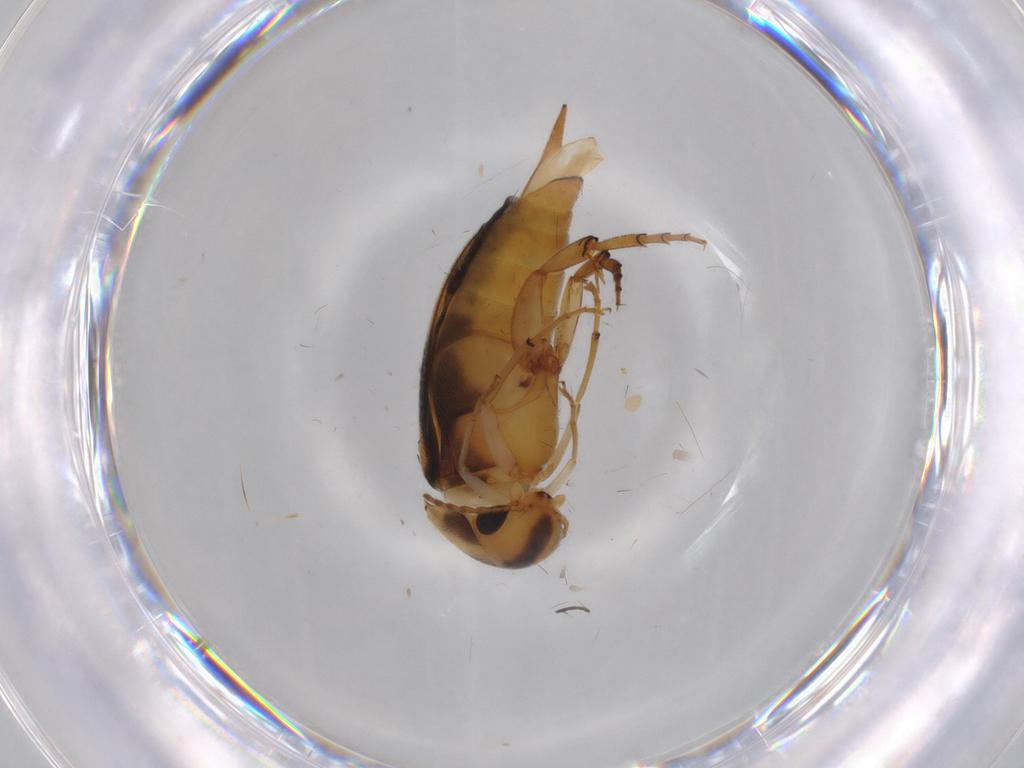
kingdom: Animalia
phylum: Arthropoda
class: Insecta
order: Coleoptera
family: Mordellidae
